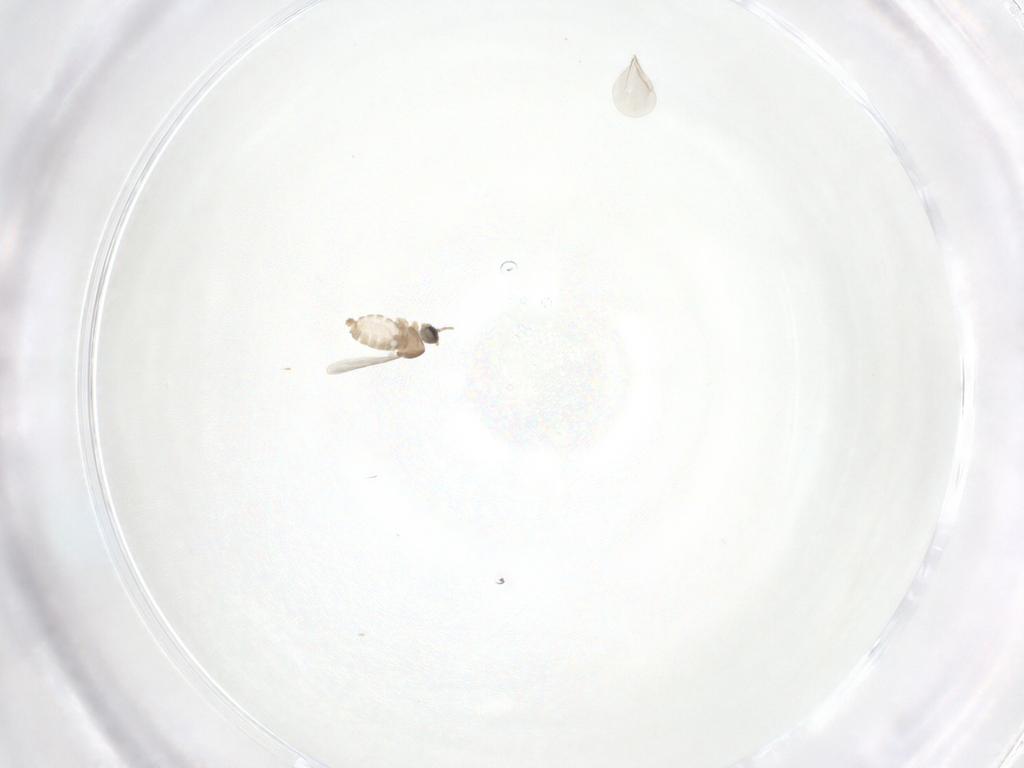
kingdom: Animalia
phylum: Arthropoda
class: Insecta
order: Diptera
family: Cecidomyiidae
